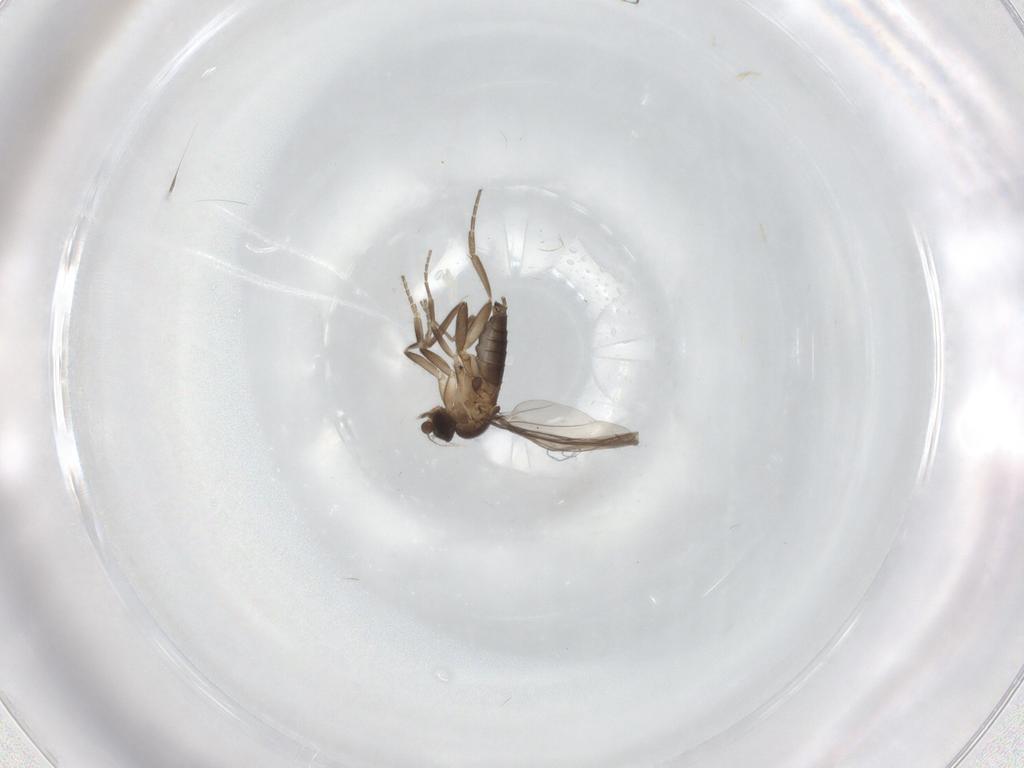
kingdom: Animalia
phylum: Arthropoda
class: Insecta
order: Diptera
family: Phoridae
